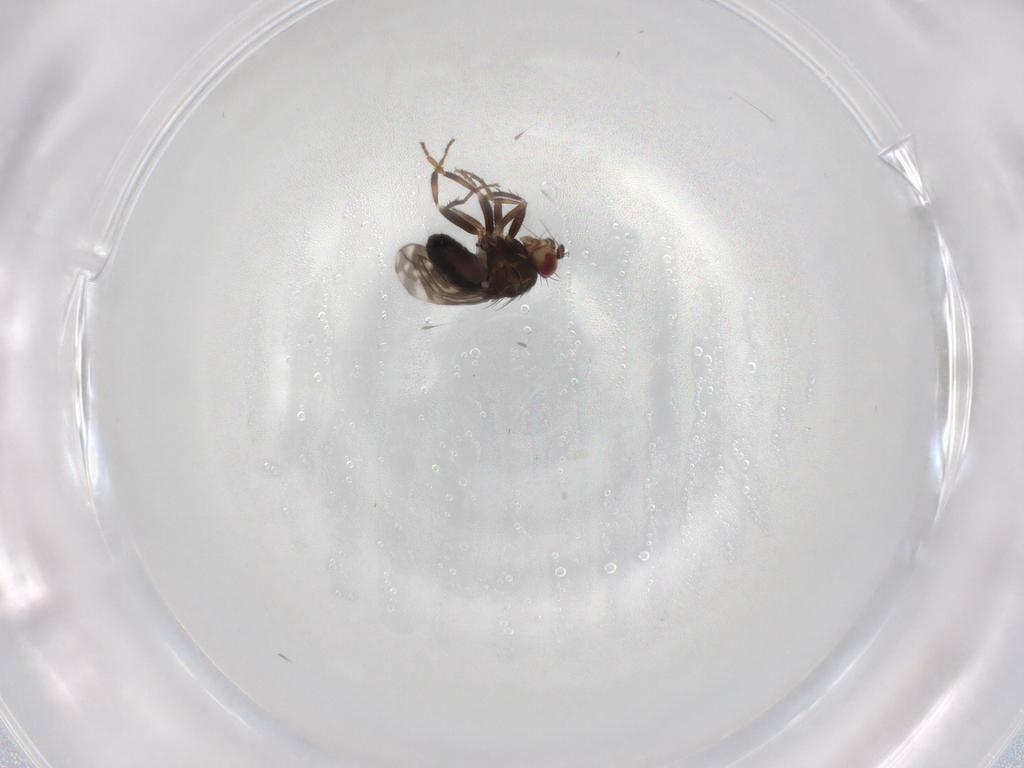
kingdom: Animalia
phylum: Arthropoda
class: Insecta
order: Diptera
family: Sphaeroceridae
